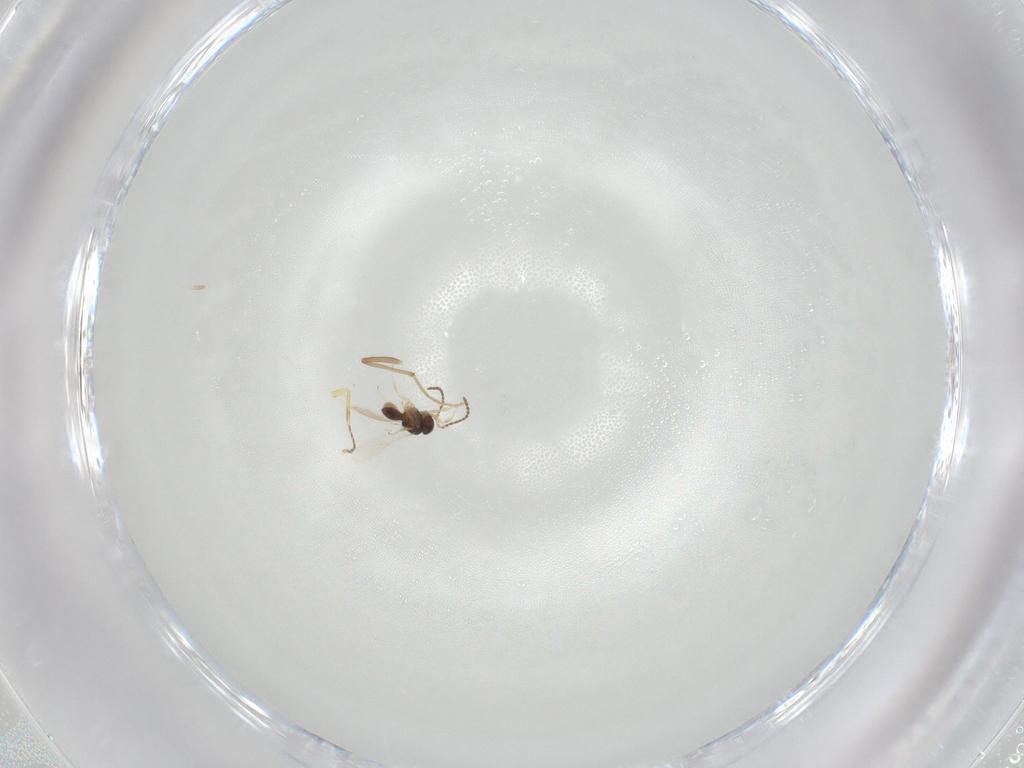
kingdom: Animalia
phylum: Arthropoda
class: Insecta
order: Hymenoptera
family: Eulophidae
